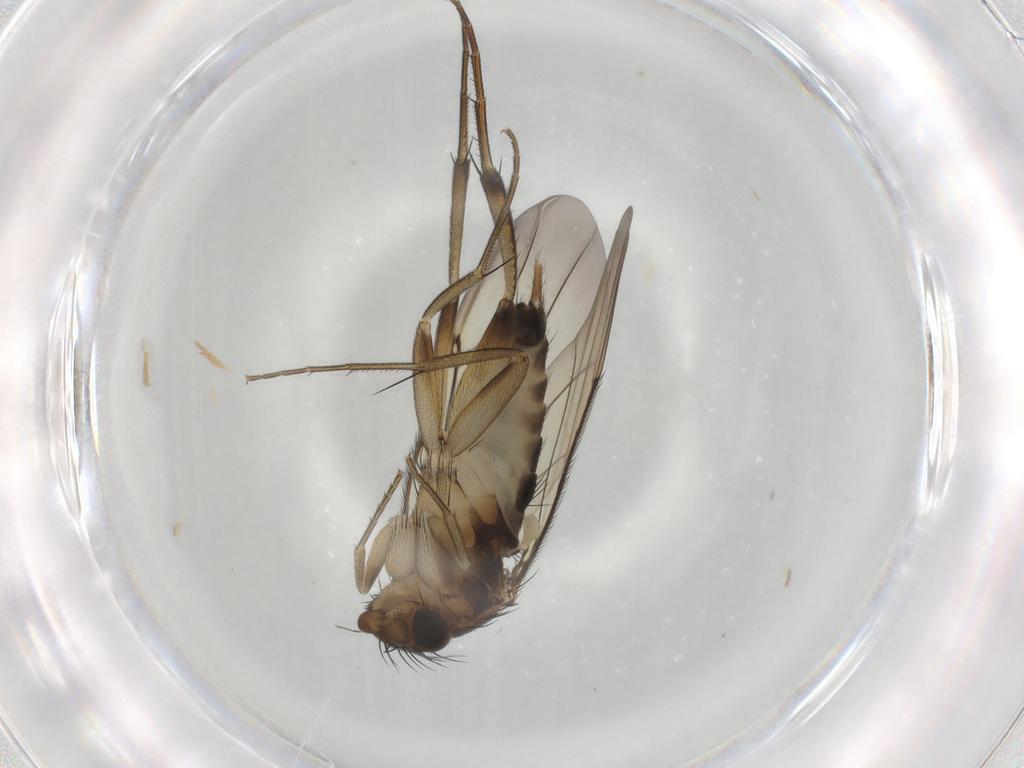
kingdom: Animalia
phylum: Arthropoda
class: Insecta
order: Diptera
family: Phoridae
